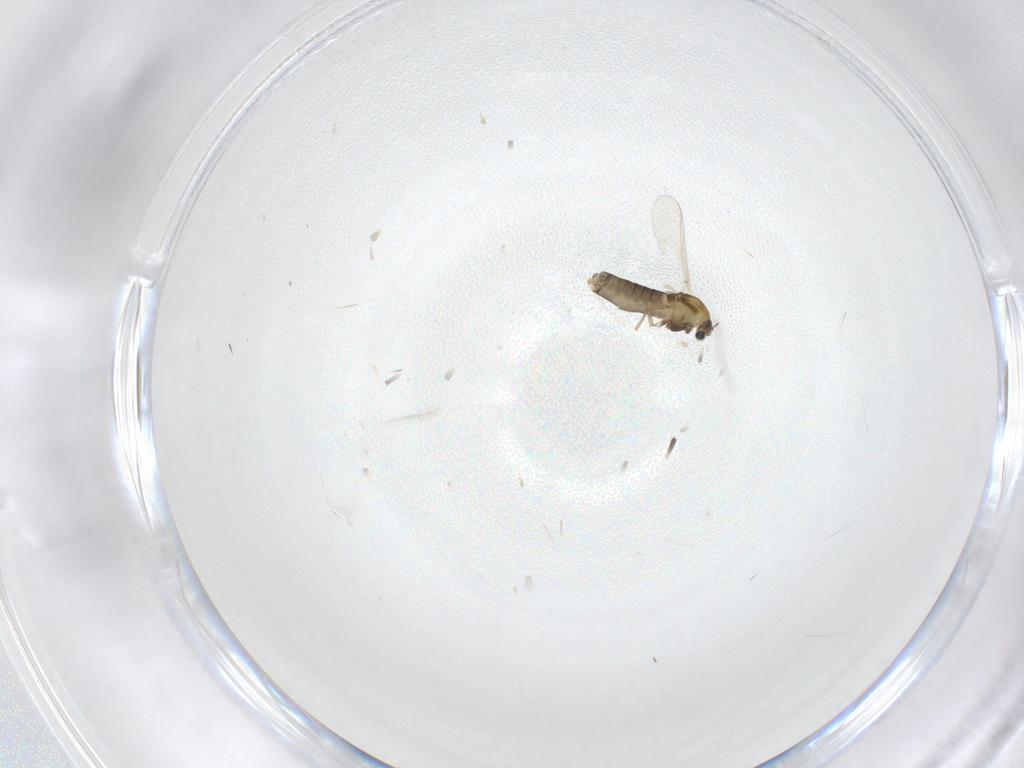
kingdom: Animalia
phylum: Arthropoda
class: Insecta
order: Diptera
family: Chironomidae
